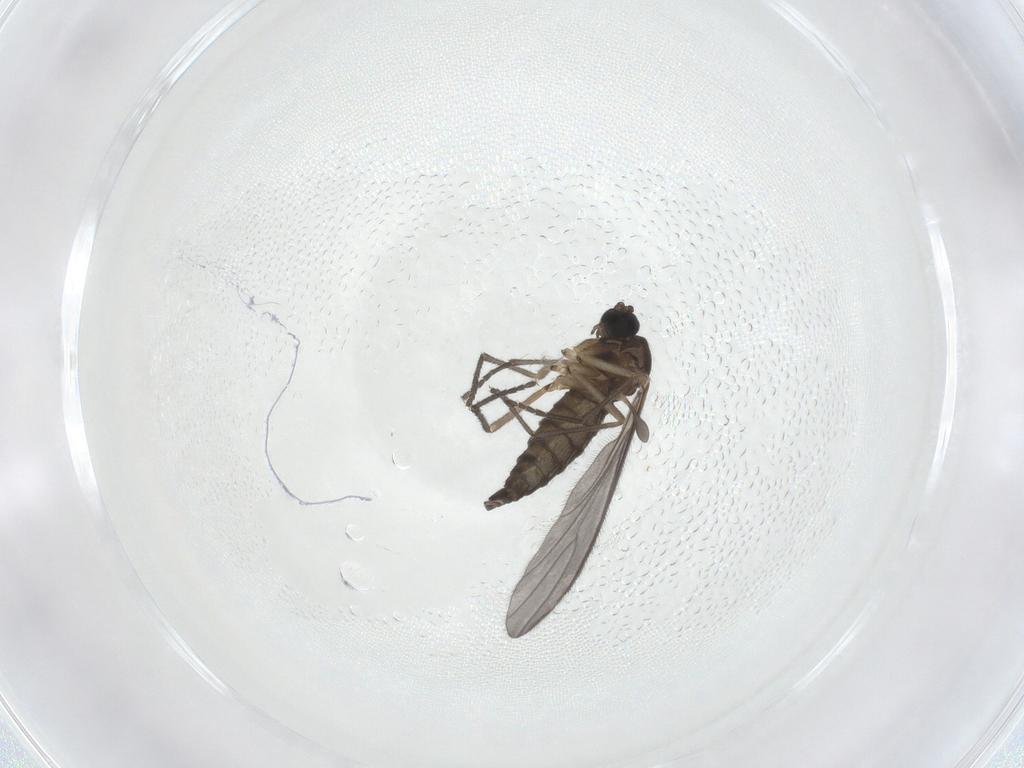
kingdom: Animalia
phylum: Arthropoda
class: Insecta
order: Diptera
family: Sciaridae
